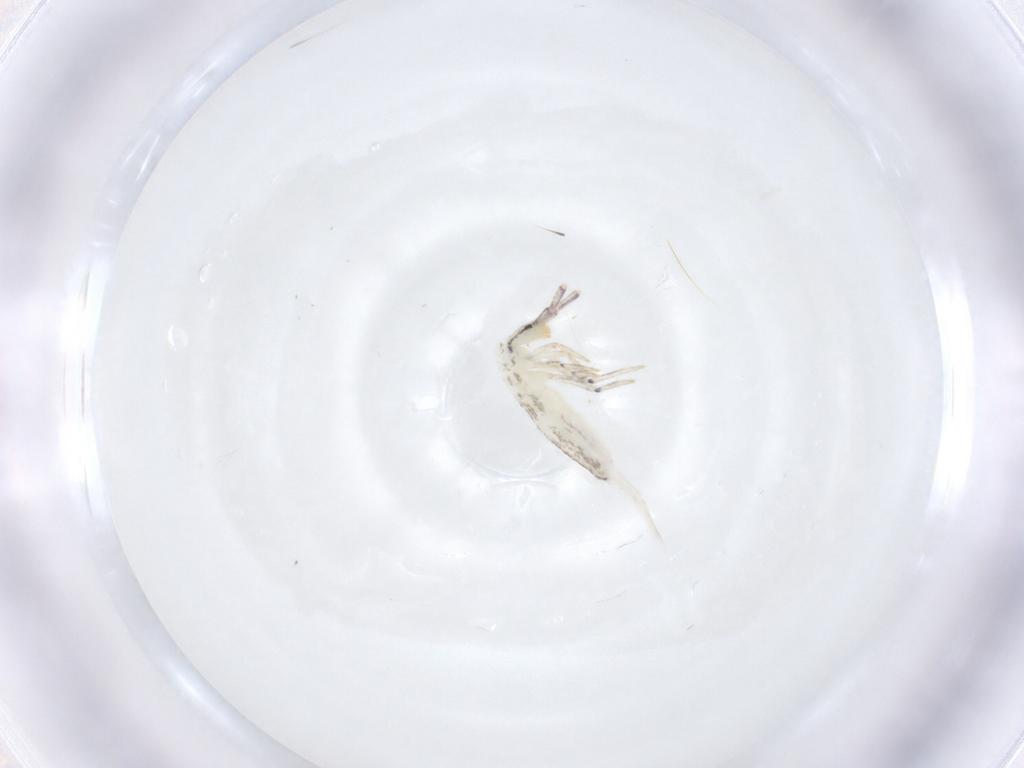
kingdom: Animalia
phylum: Arthropoda
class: Collembola
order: Entomobryomorpha
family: Entomobryidae
